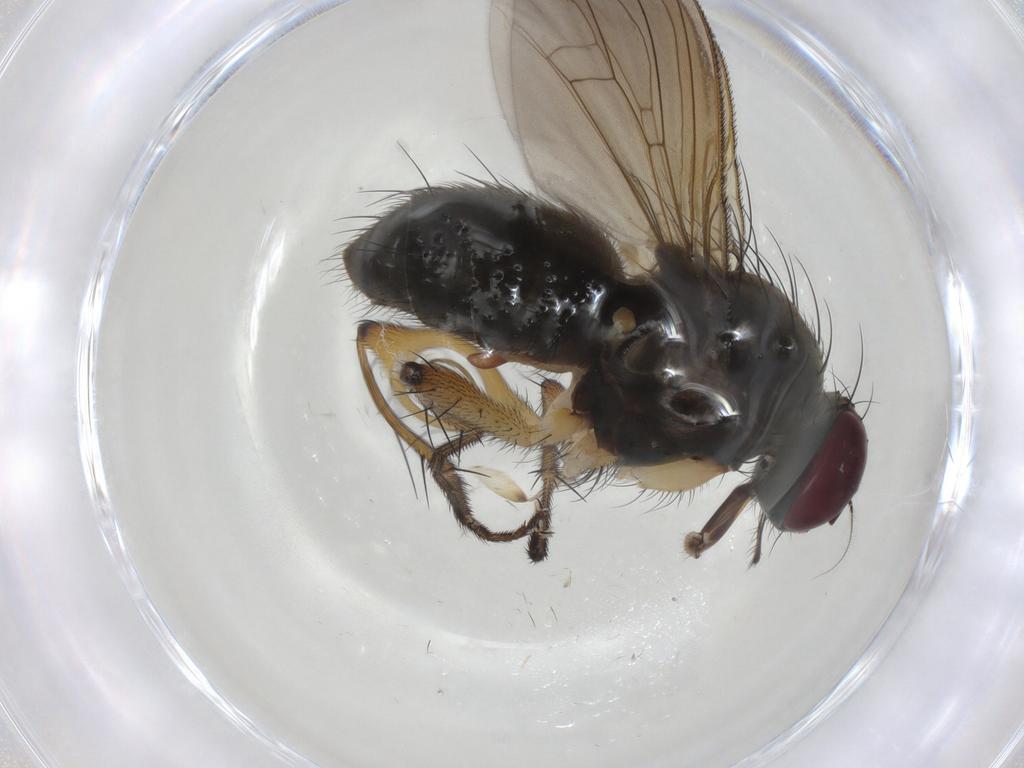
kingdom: Animalia
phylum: Arthropoda
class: Insecta
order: Diptera
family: Muscidae
